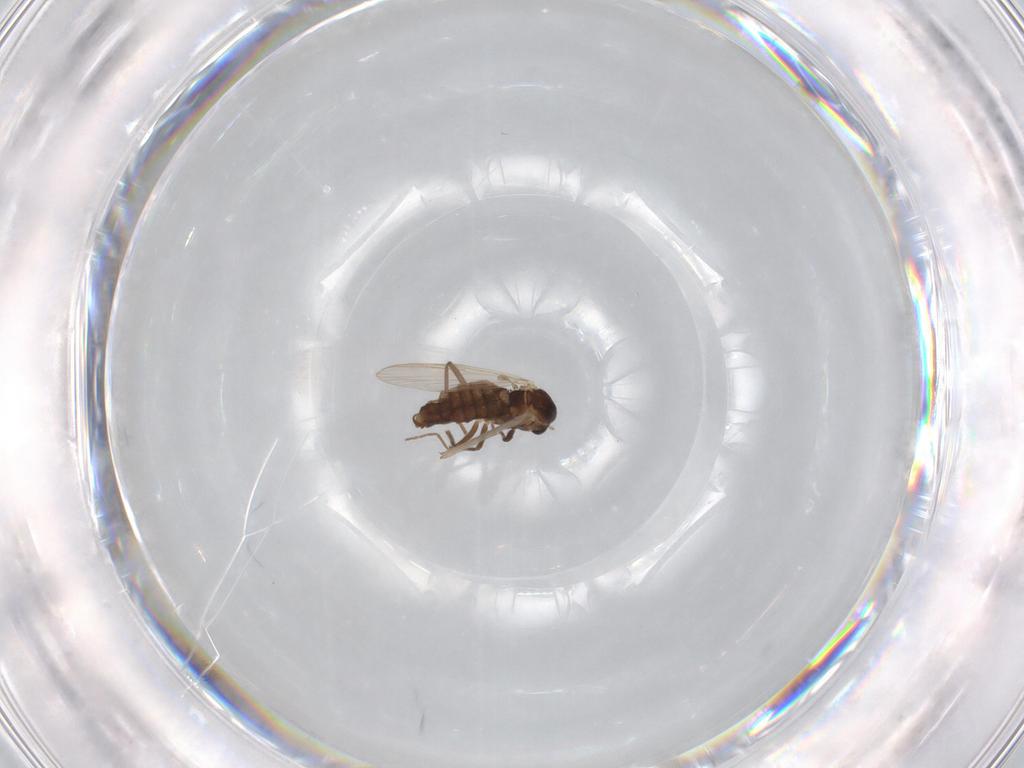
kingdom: Animalia
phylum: Arthropoda
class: Insecta
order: Diptera
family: Chironomidae
